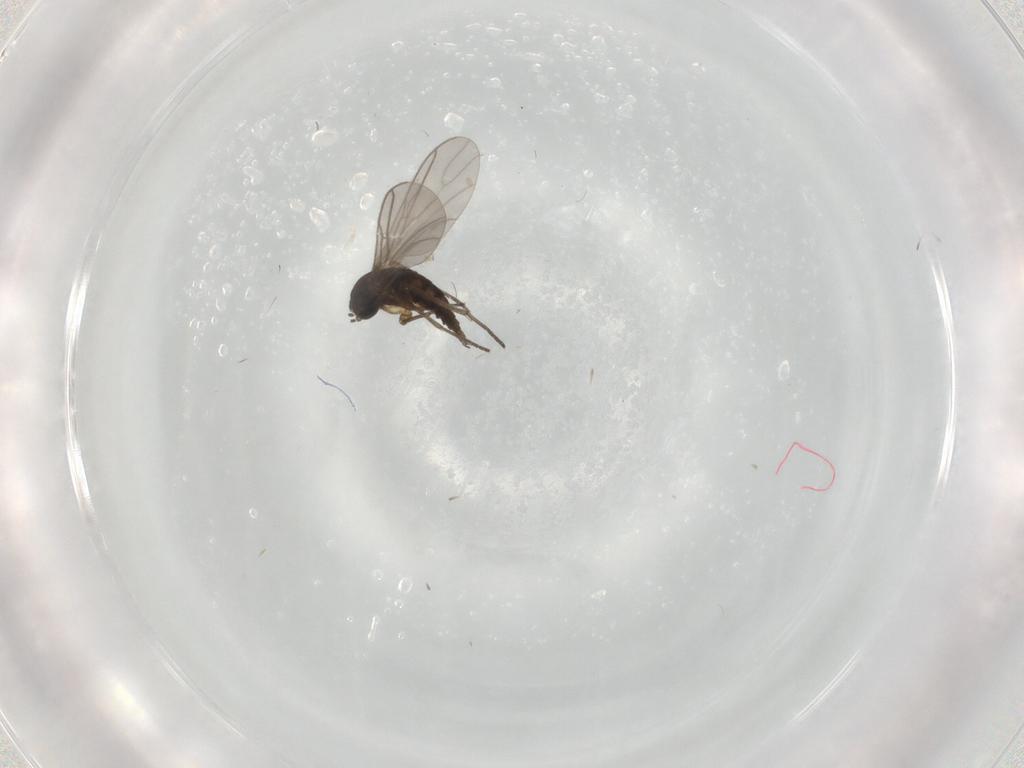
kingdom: Animalia
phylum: Arthropoda
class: Insecta
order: Diptera
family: Sciaridae
